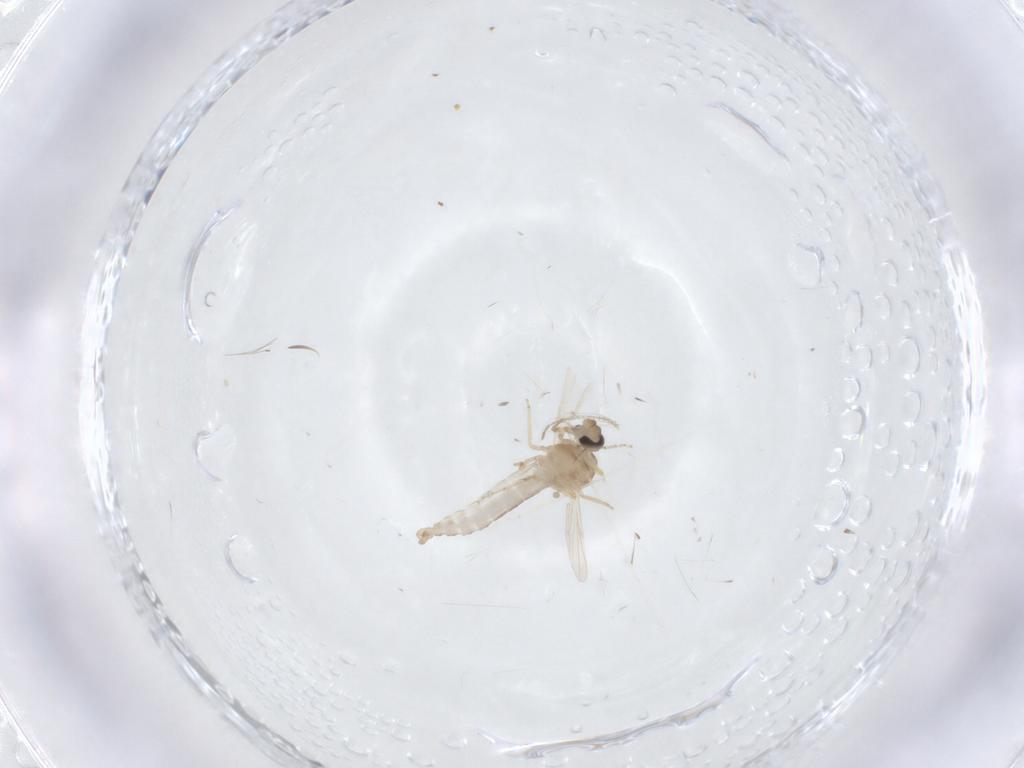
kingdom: Animalia
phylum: Arthropoda
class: Insecta
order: Diptera
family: Ceratopogonidae
